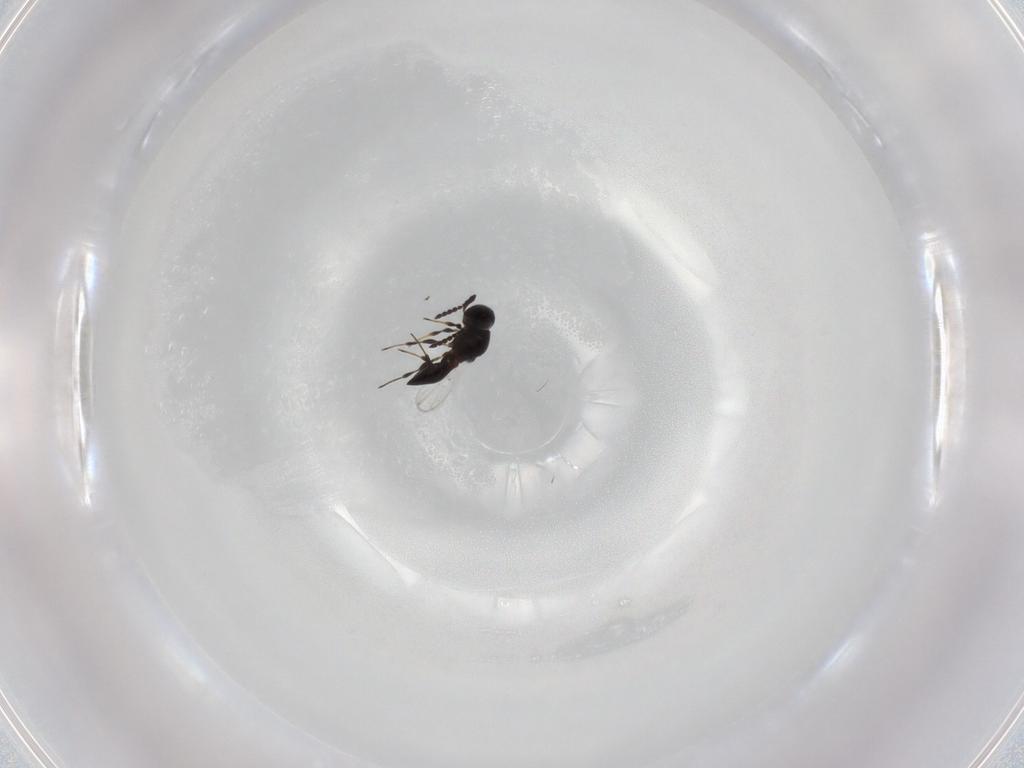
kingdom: Animalia
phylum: Arthropoda
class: Insecta
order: Hymenoptera
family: Platygastridae
